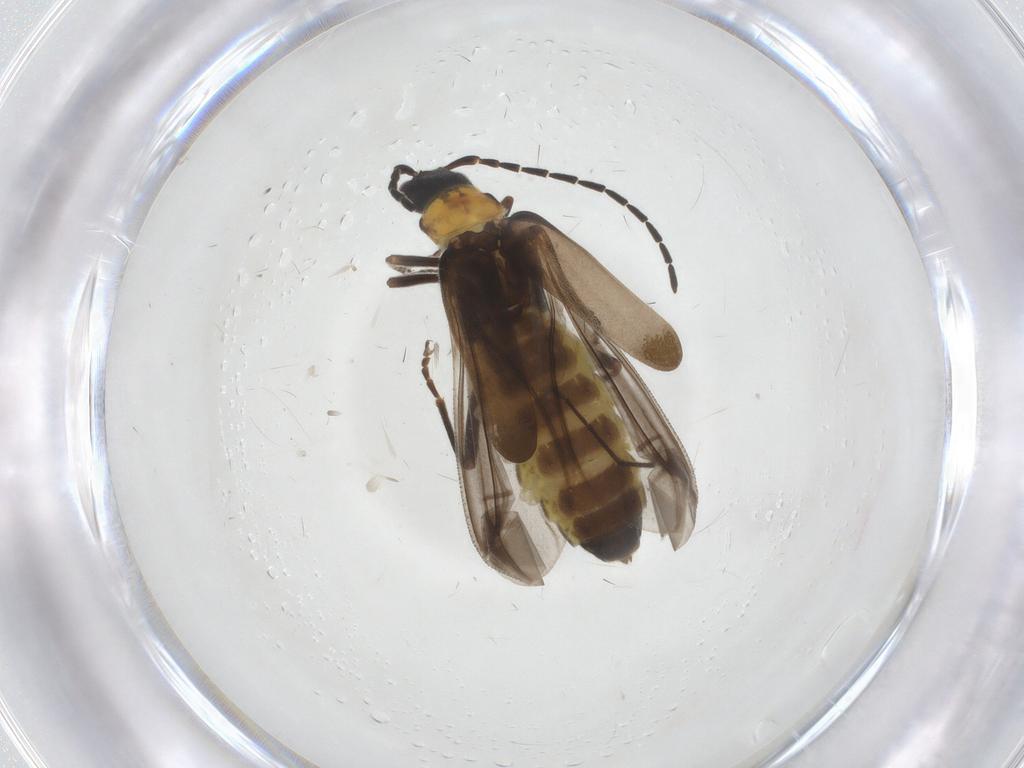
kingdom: Animalia
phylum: Arthropoda
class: Insecta
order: Coleoptera
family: Cantharidae
